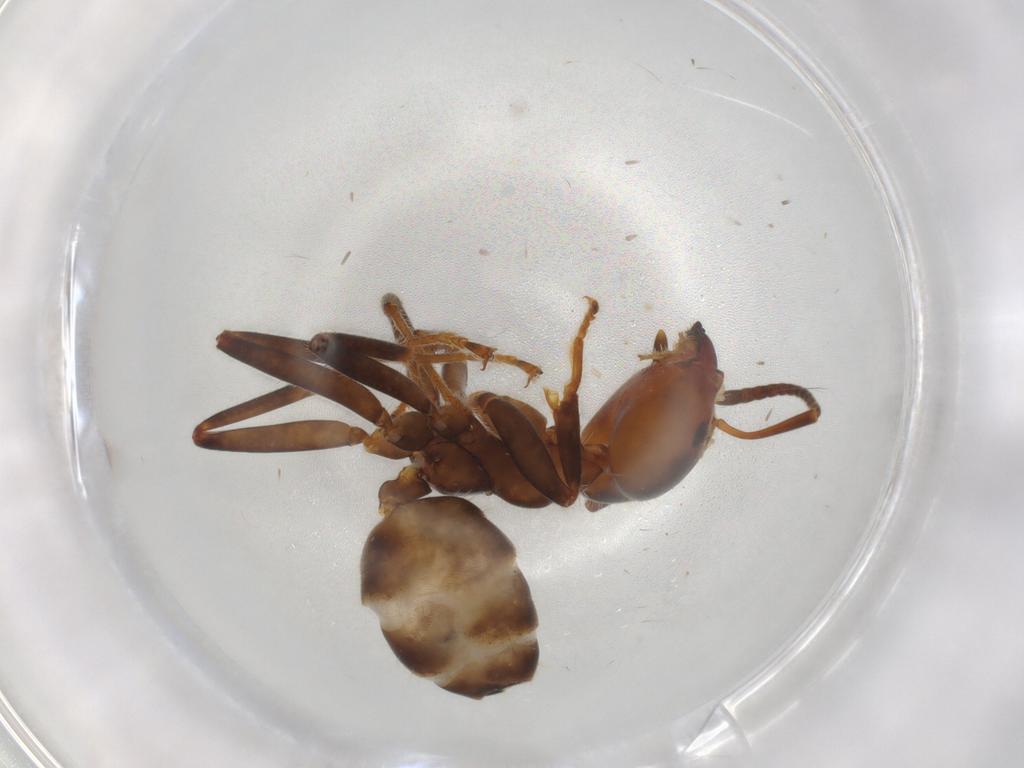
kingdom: Animalia
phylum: Arthropoda
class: Insecta
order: Hymenoptera
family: Formicidae
